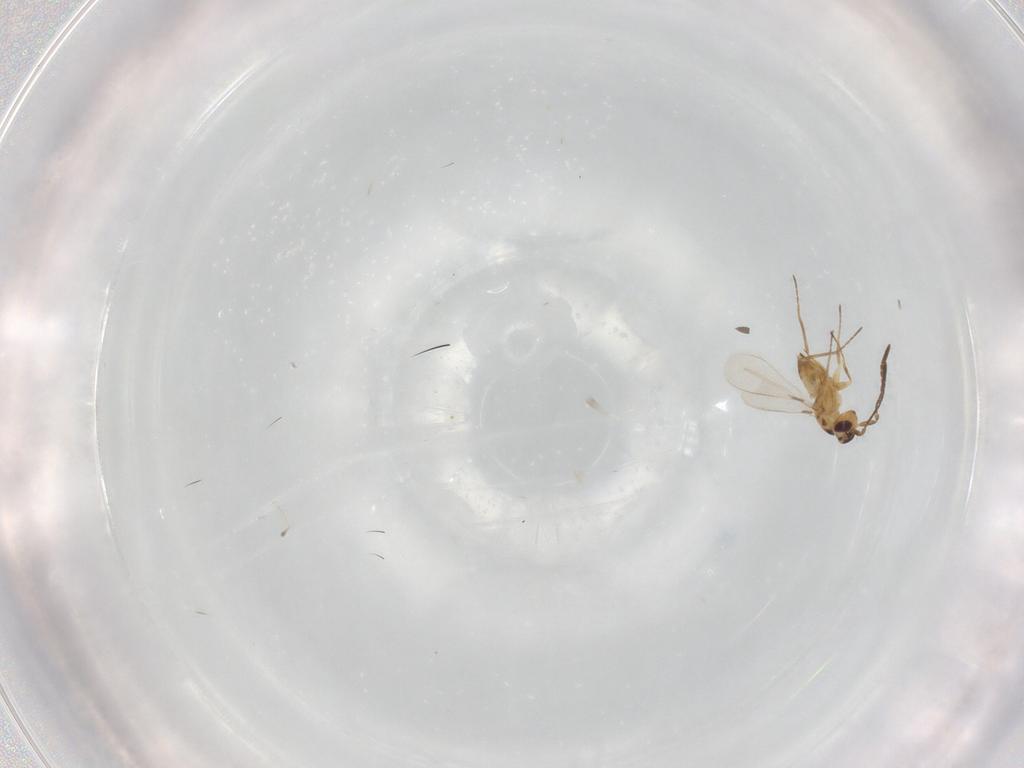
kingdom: Animalia
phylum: Arthropoda
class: Insecta
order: Hymenoptera
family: Mymaridae
